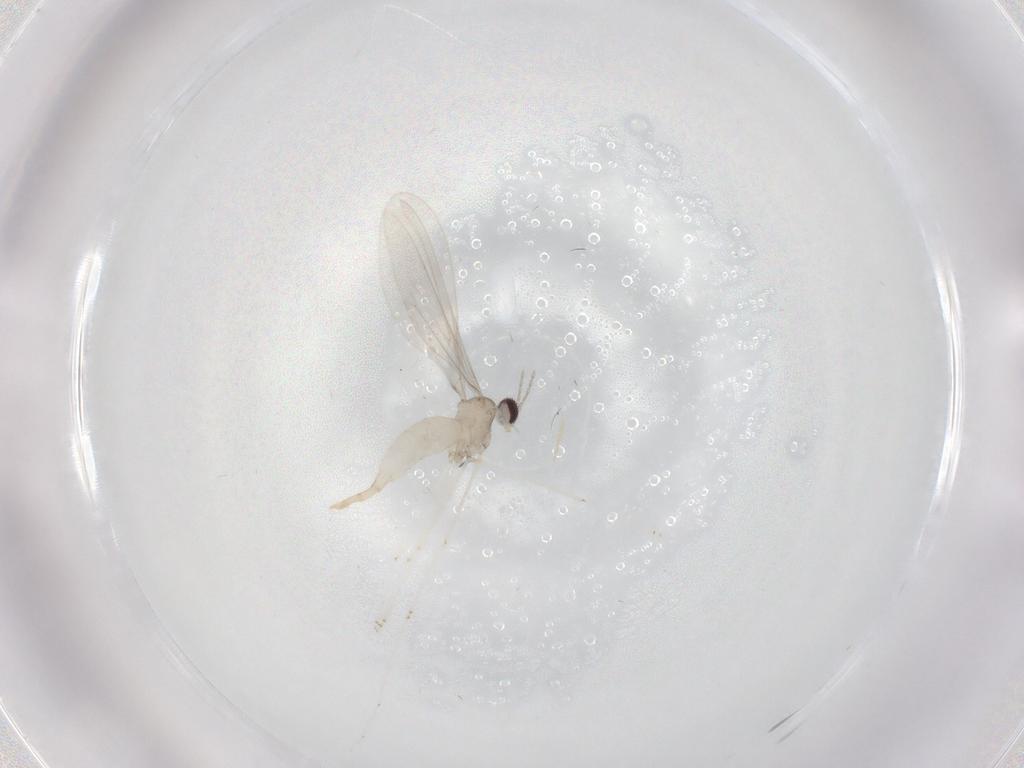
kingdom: Animalia
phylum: Arthropoda
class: Insecta
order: Diptera
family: Cecidomyiidae
